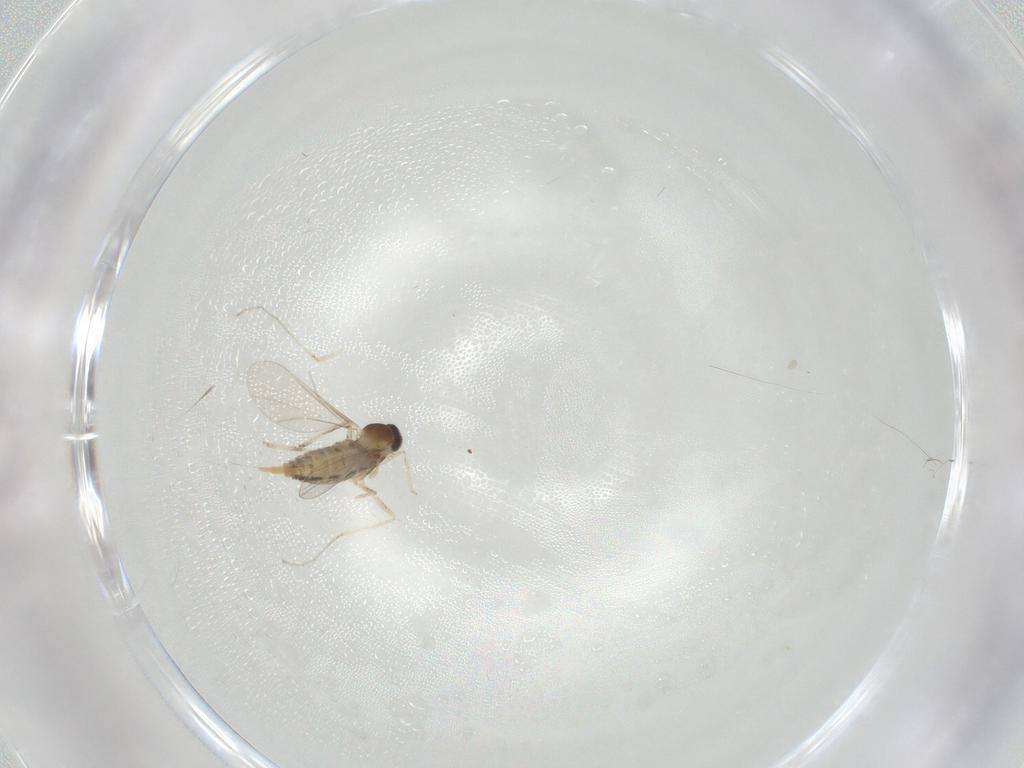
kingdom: Animalia
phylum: Arthropoda
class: Insecta
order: Diptera
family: Cecidomyiidae
